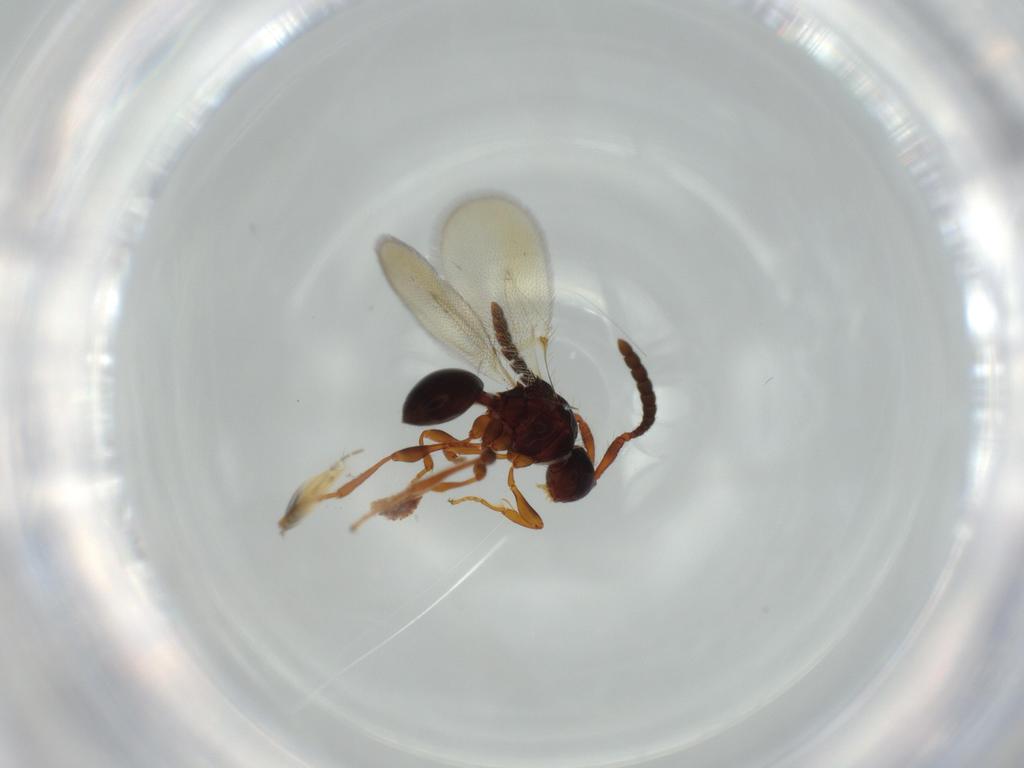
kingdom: Animalia
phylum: Arthropoda
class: Insecta
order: Hymenoptera
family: Diapriidae
